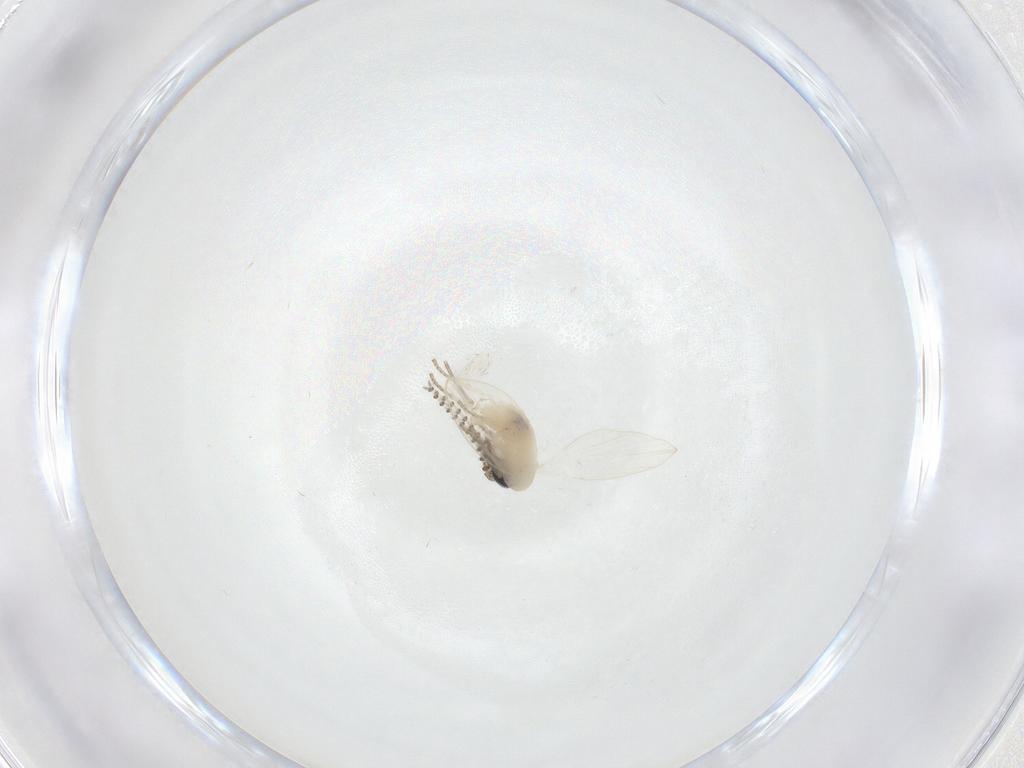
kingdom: Animalia
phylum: Arthropoda
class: Insecta
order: Diptera
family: Psychodidae
